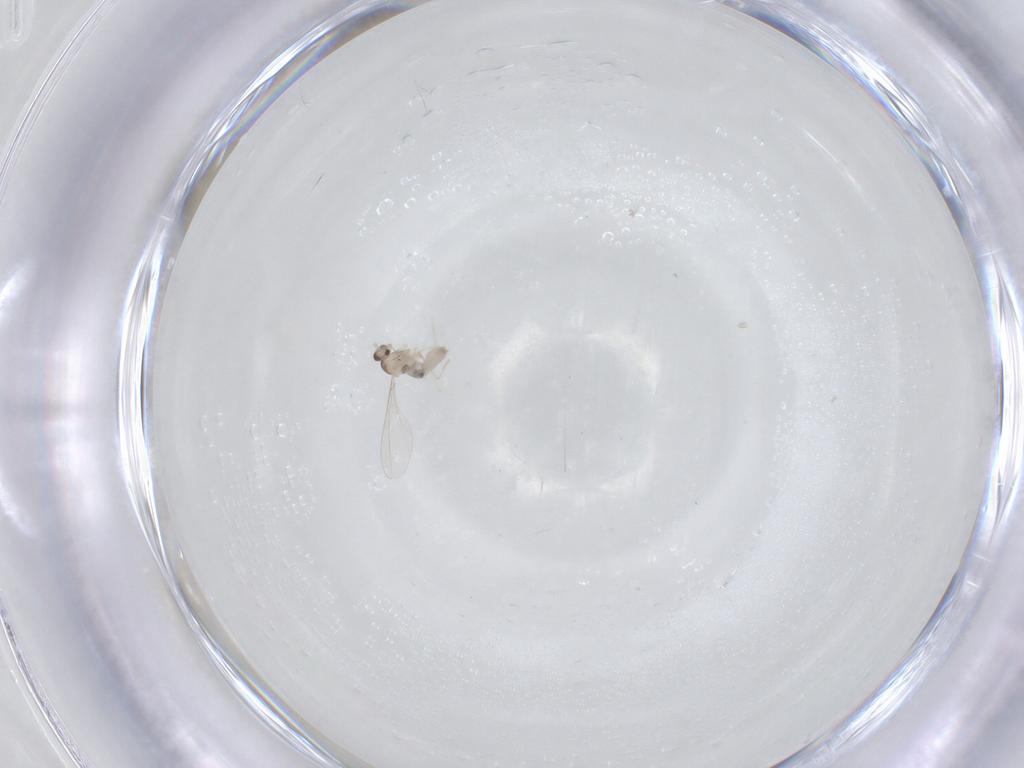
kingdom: Animalia
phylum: Arthropoda
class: Insecta
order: Diptera
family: Cecidomyiidae
